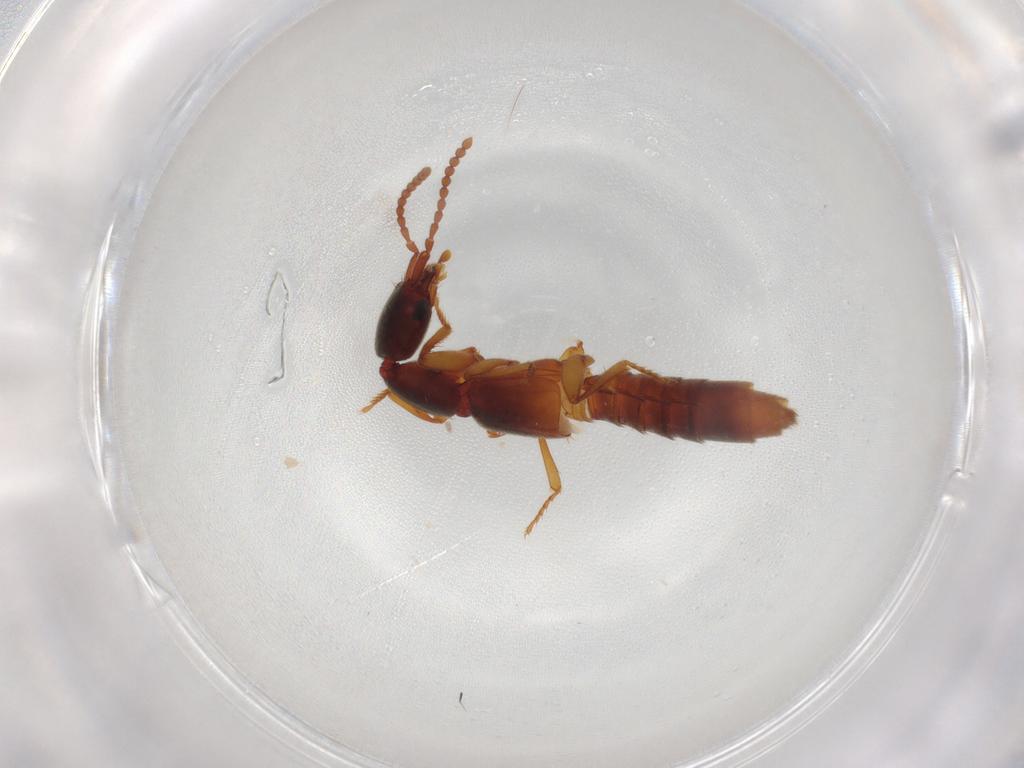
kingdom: Animalia
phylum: Arthropoda
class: Insecta
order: Coleoptera
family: Staphylinidae
